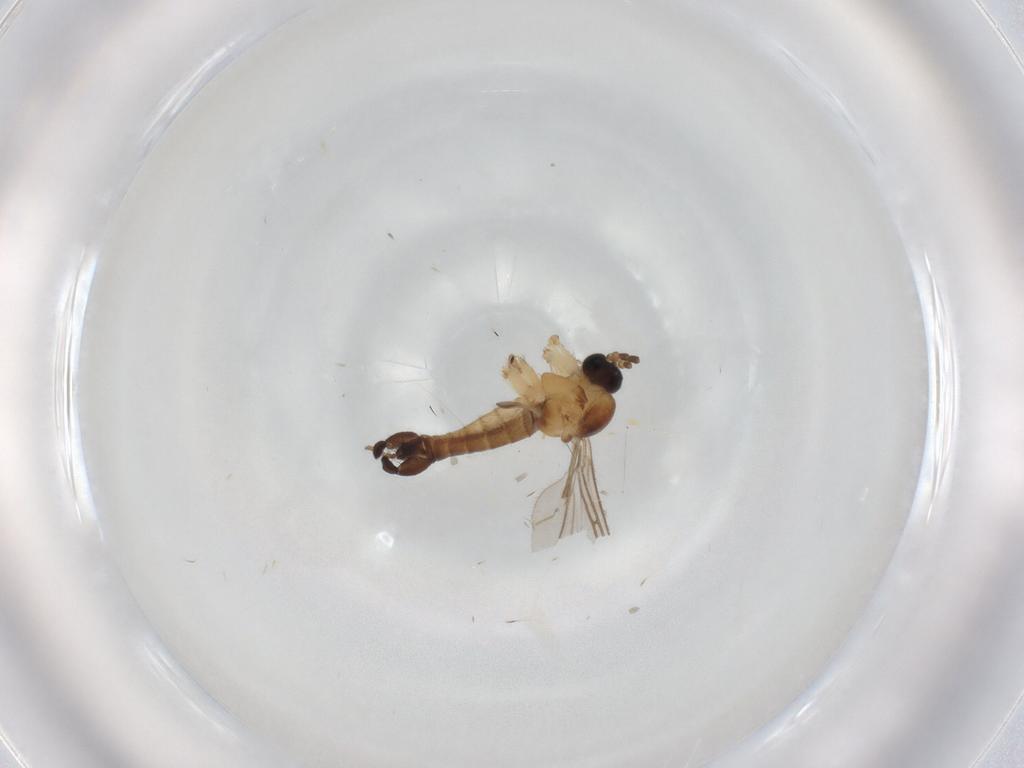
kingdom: Animalia
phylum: Arthropoda
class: Insecta
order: Diptera
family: Sciaridae
